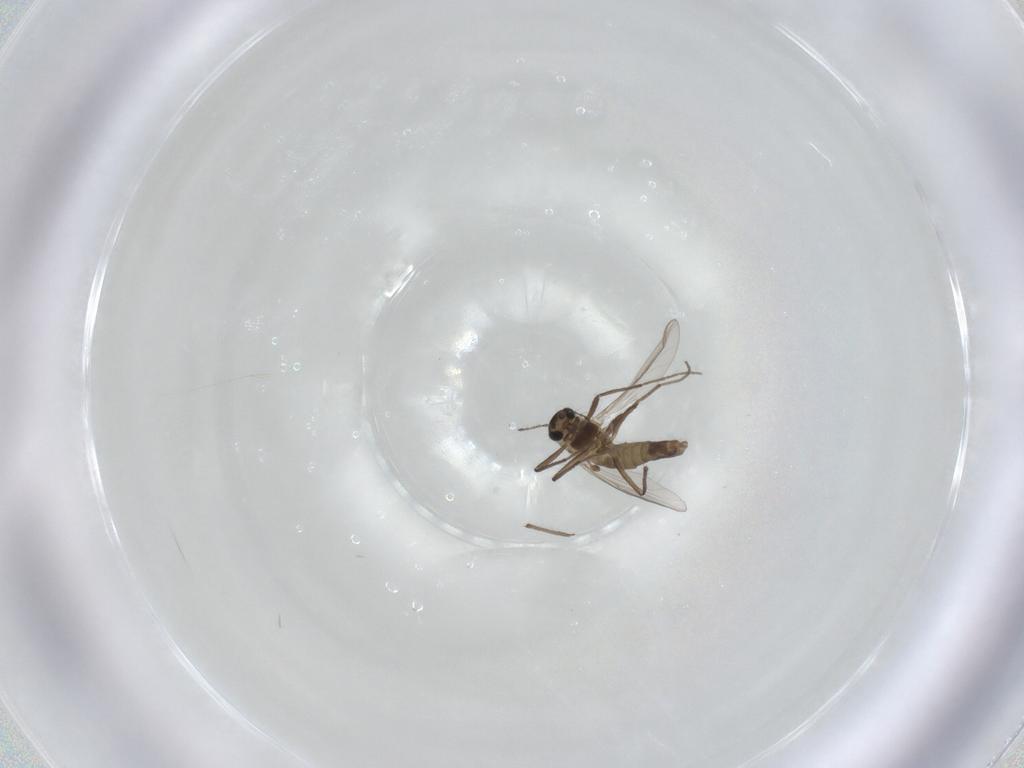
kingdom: Animalia
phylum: Arthropoda
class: Insecta
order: Diptera
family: Chironomidae
